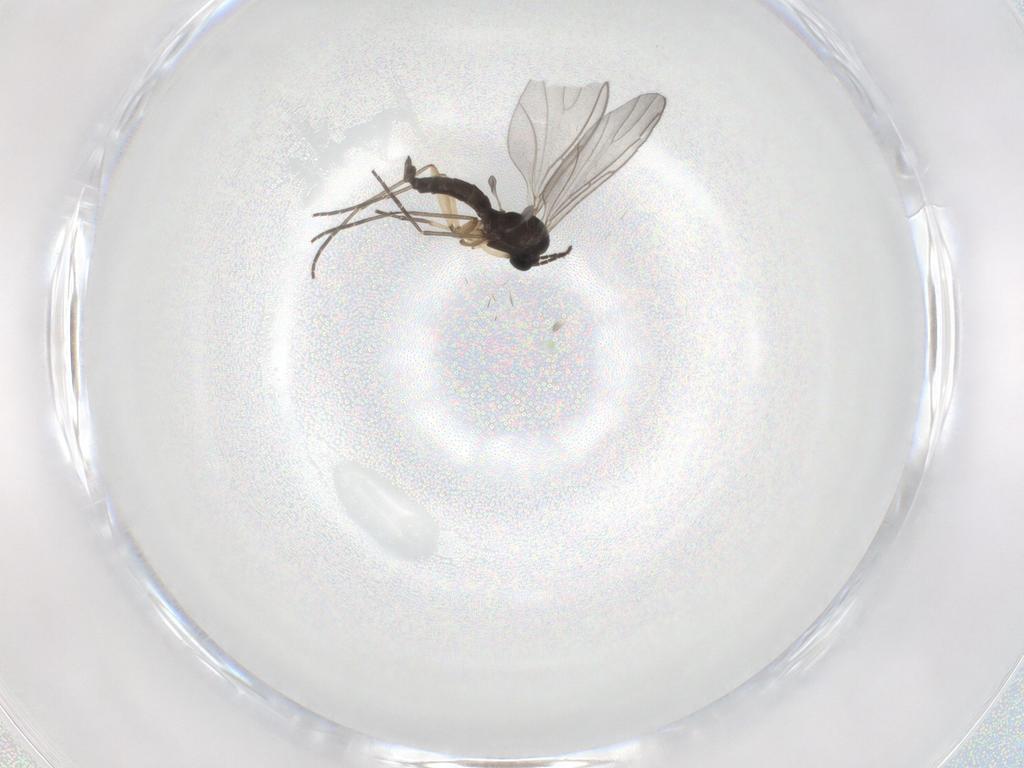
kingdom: Animalia
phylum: Arthropoda
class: Insecta
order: Diptera
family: Sciaridae
